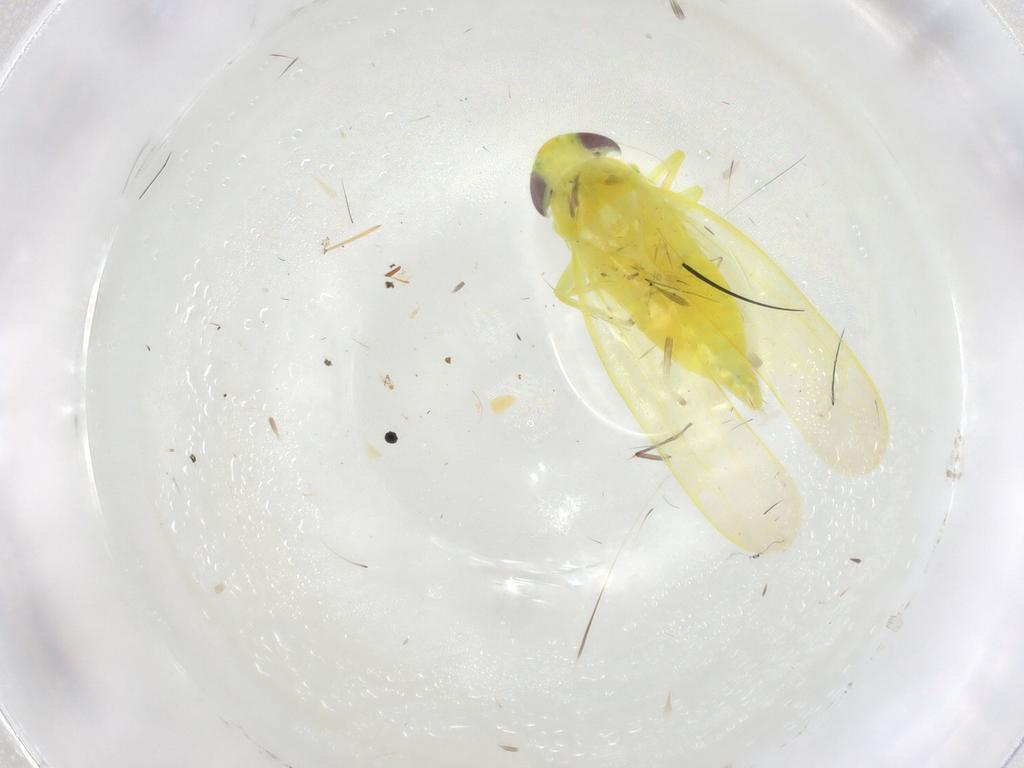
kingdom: Animalia
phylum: Arthropoda
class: Insecta
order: Hemiptera
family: Cicadellidae
